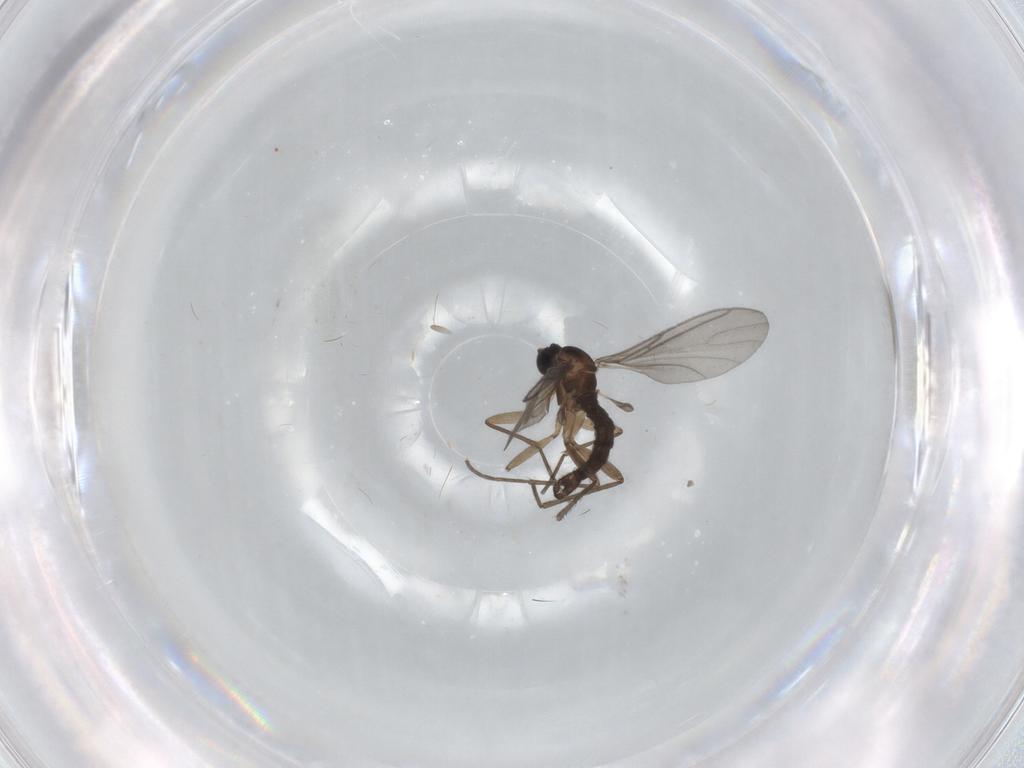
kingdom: Animalia
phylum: Arthropoda
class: Insecta
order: Diptera
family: Sciaridae
